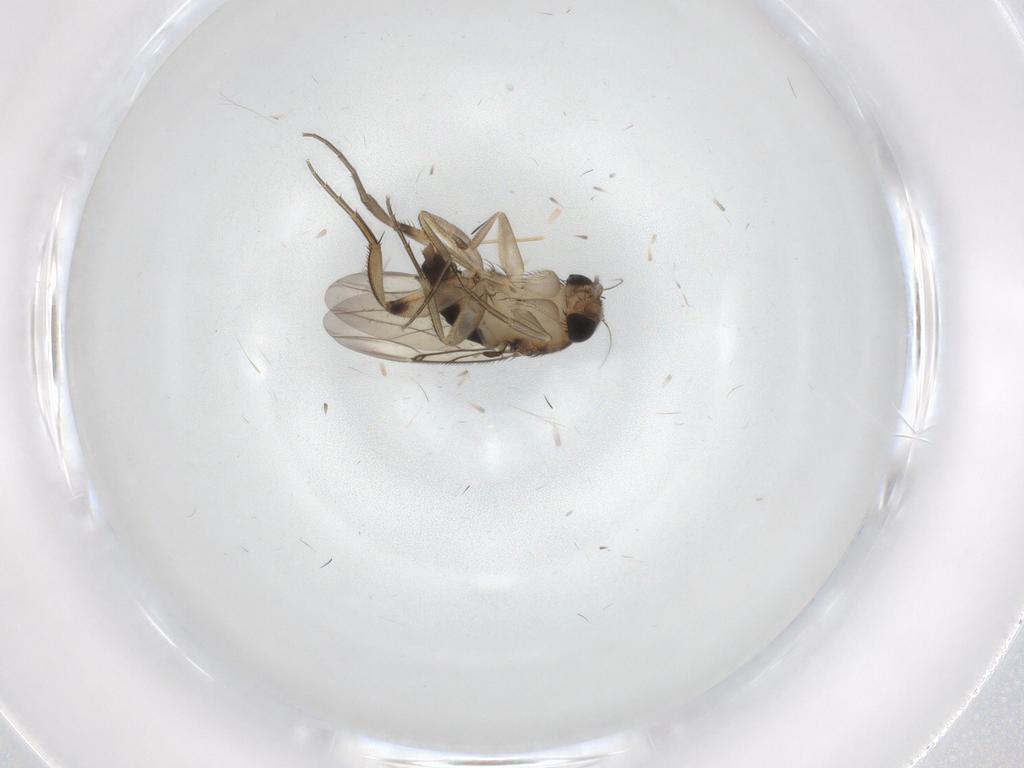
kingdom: Animalia
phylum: Arthropoda
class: Insecta
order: Diptera
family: Phoridae
